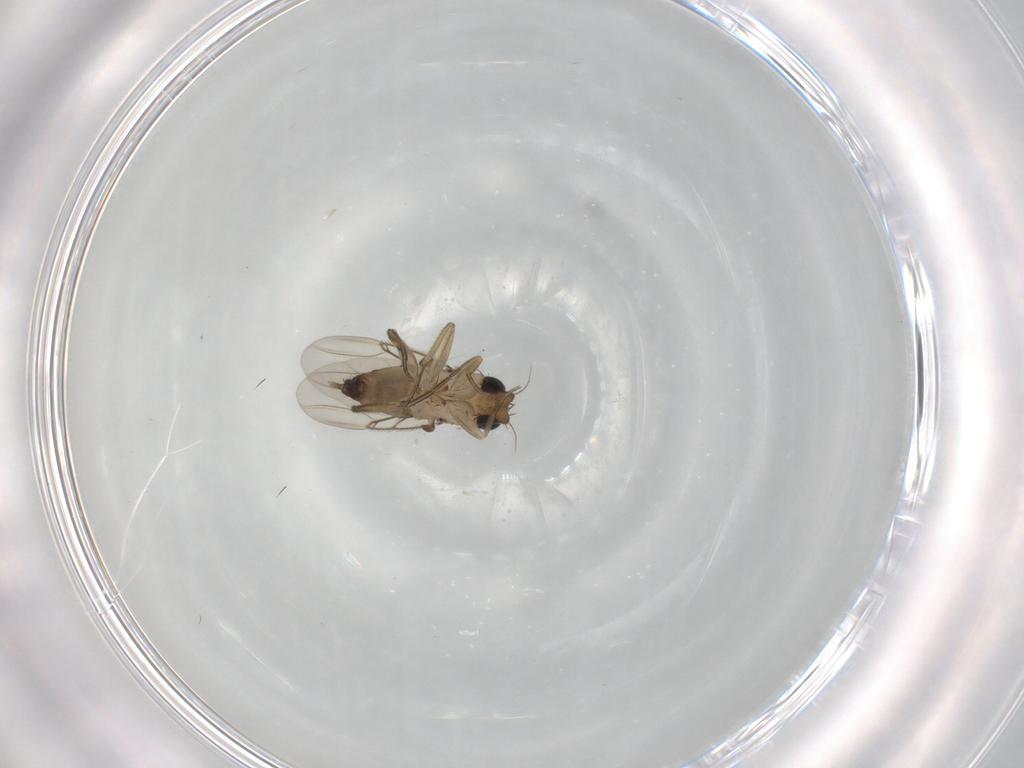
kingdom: Animalia
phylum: Arthropoda
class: Insecta
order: Diptera
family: Phoridae
